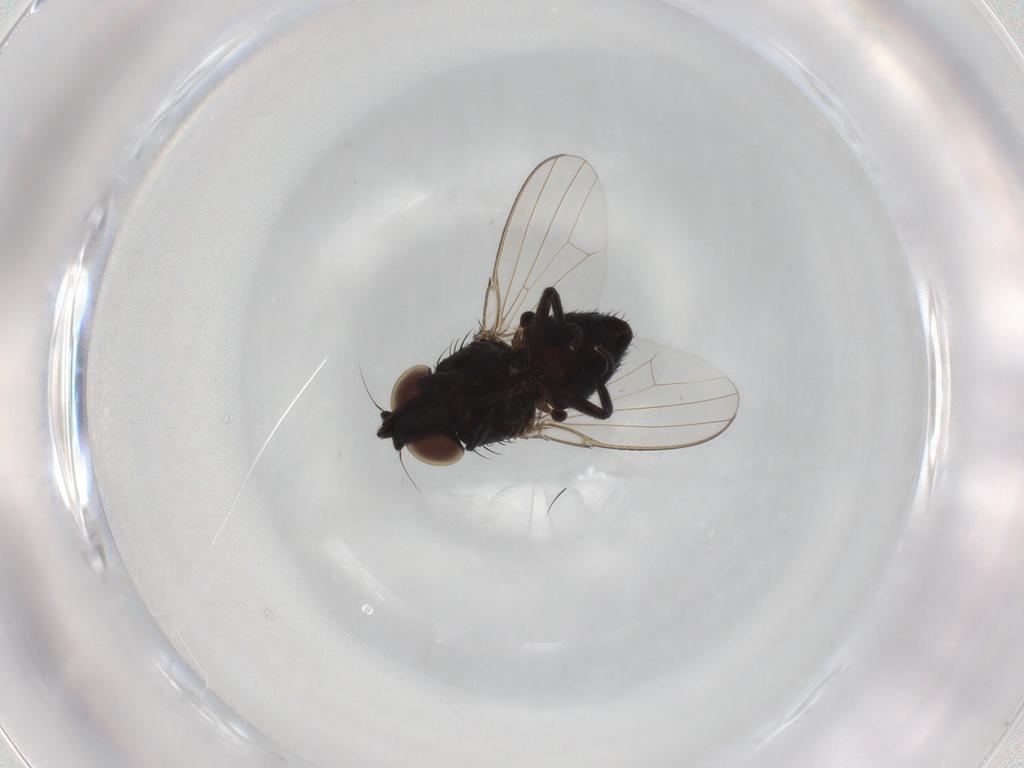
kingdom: Animalia
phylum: Arthropoda
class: Insecta
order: Diptera
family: Milichiidae
